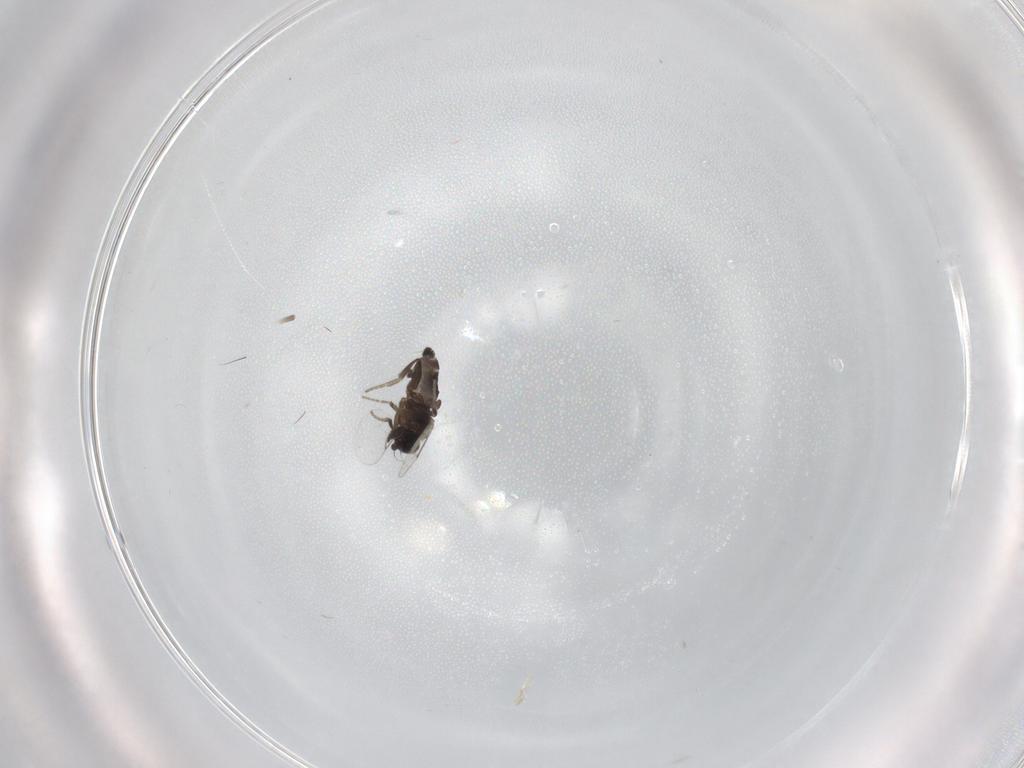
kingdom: Animalia
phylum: Arthropoda
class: Insecta
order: Diptera
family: Phoridae
